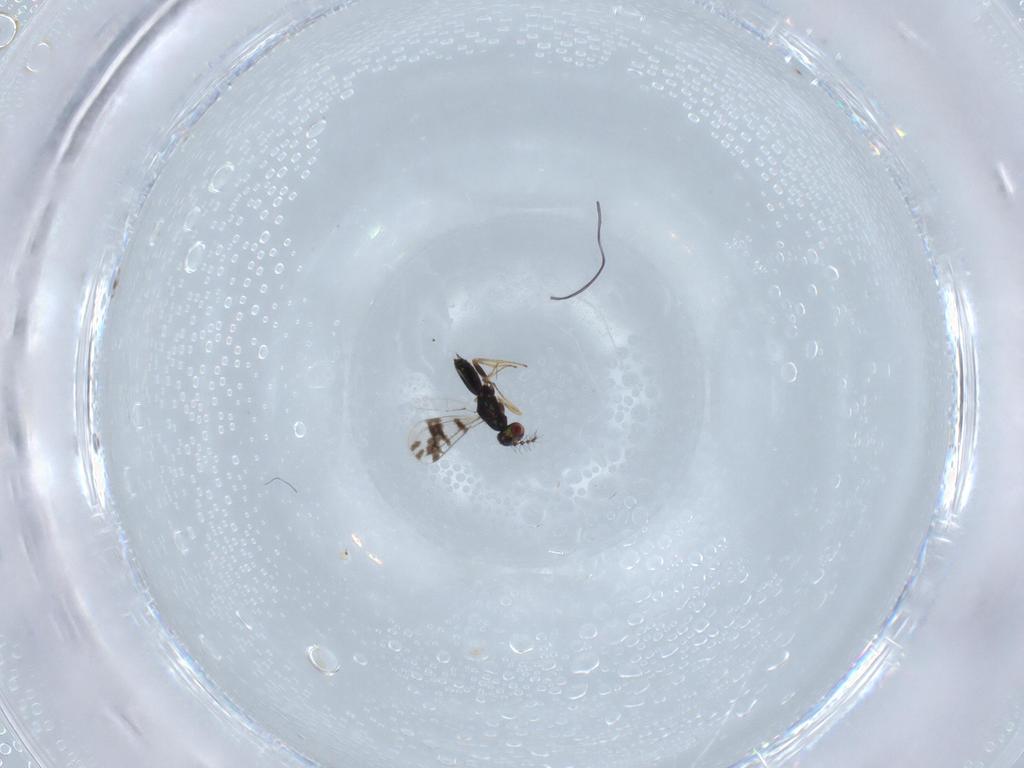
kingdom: Animalia
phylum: Arthropoda
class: Insecta
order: Hymenoptera
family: Eulophidae
